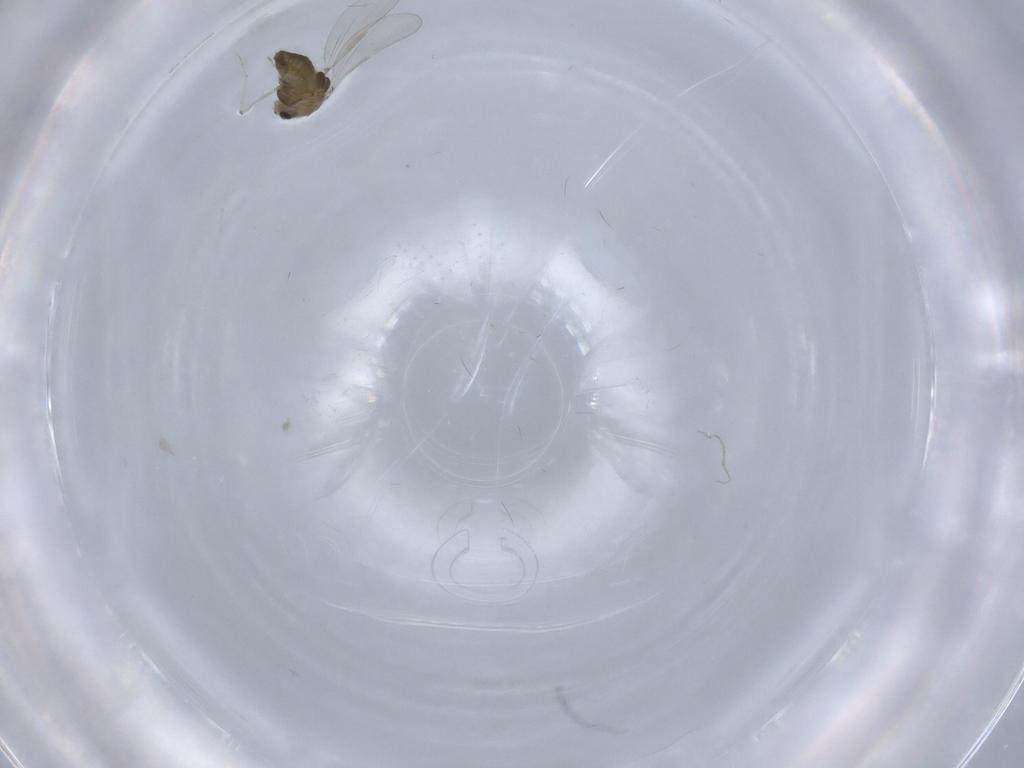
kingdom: Animalia
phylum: Arthropoda
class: Insecta
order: Diptera
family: Chironomidae
